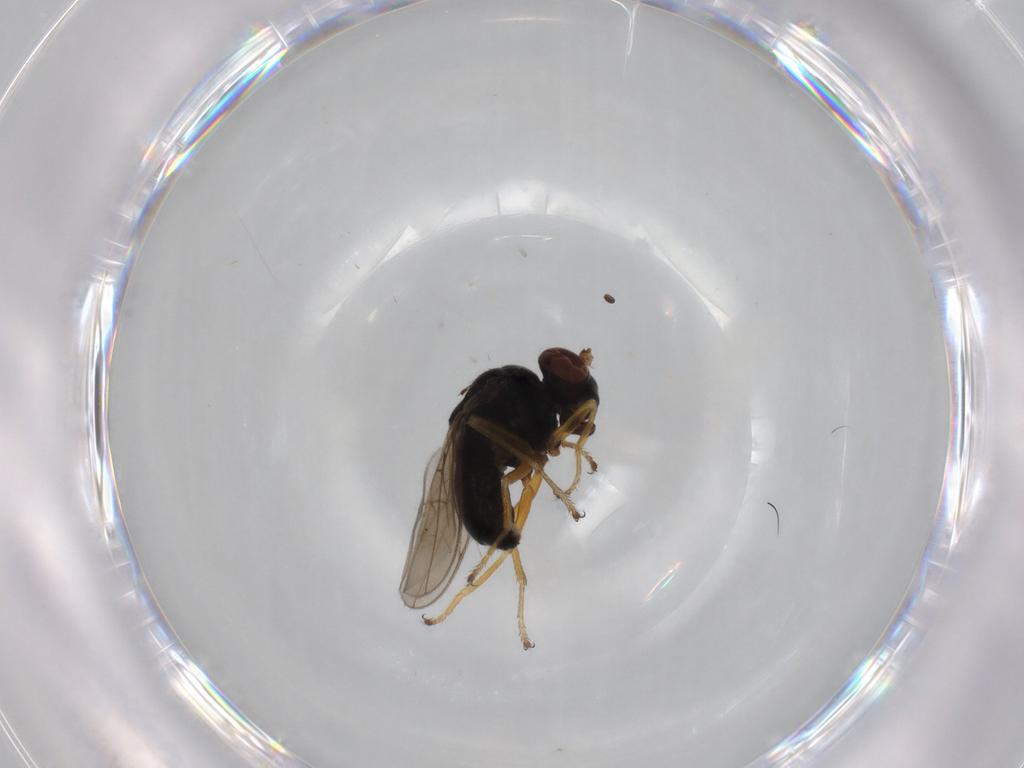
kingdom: Animalia
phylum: Arthropoda
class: Insecta
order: Diptera
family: Ephydridae
